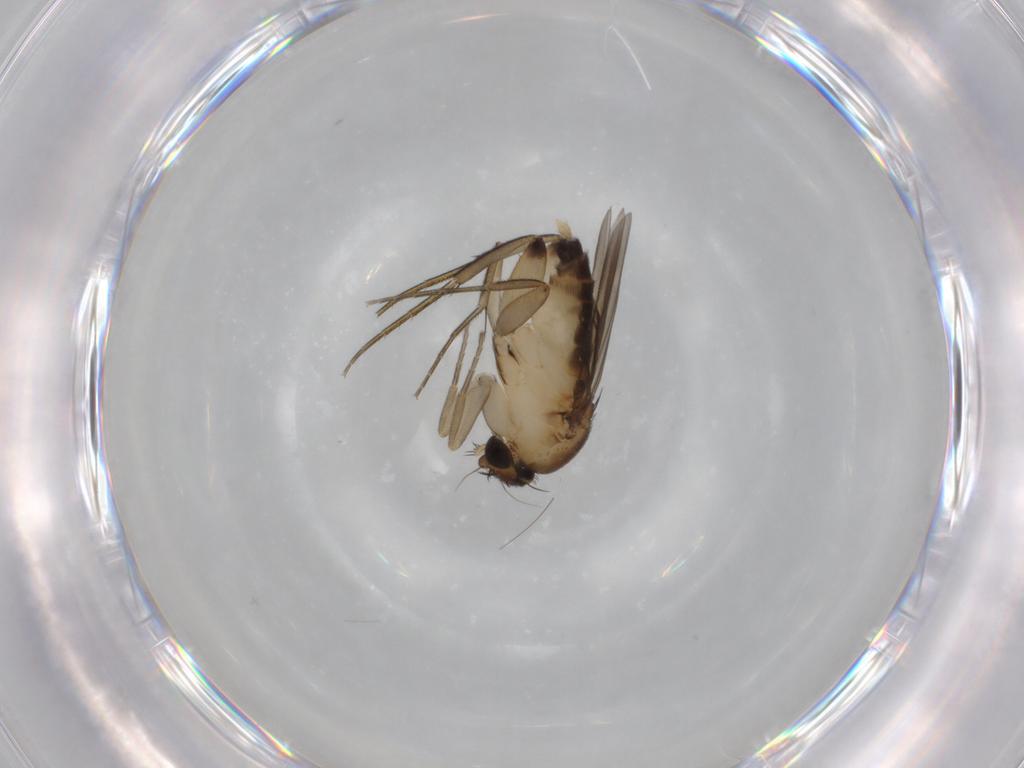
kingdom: Animalia
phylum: Arthropoda
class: Insecta
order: Diptera
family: Phoridae
